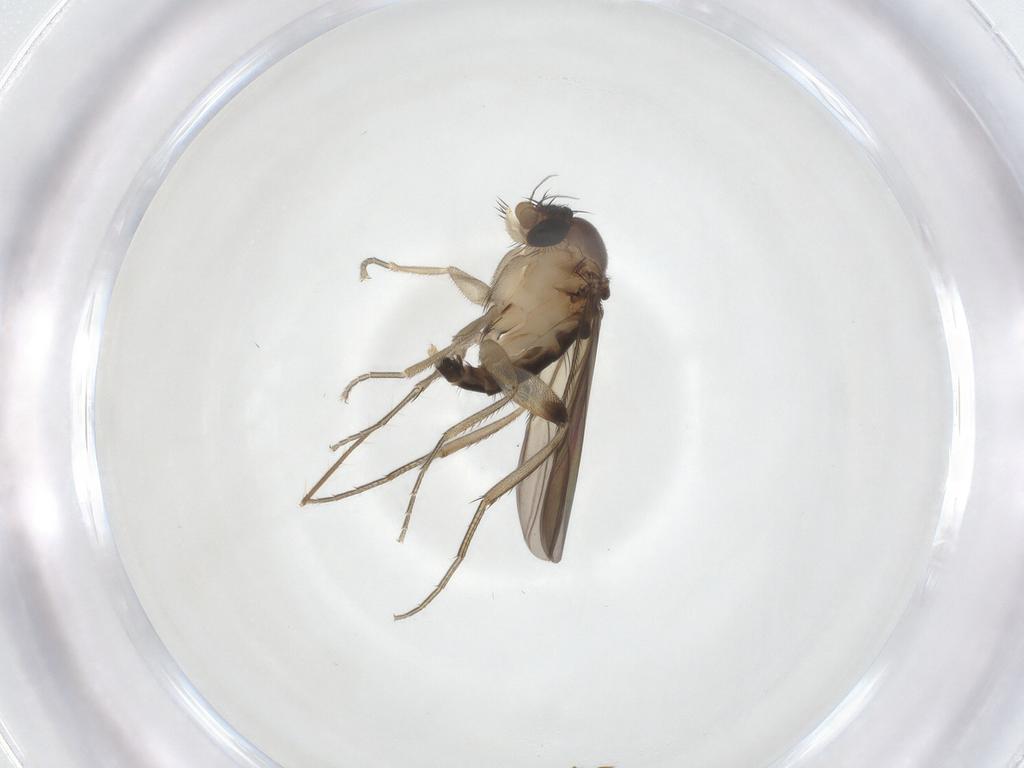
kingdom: Animalia
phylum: Arthropoda
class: Insecta
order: Diptera
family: Phoridae
